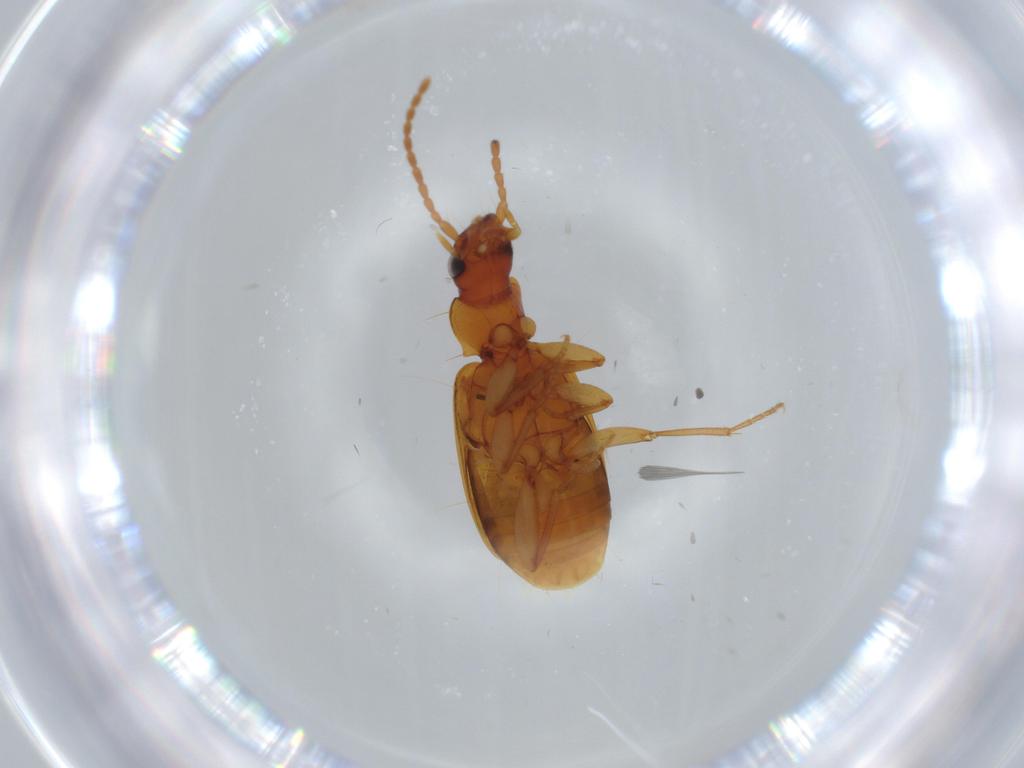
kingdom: Animalia
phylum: Arthropoda
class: Insecta
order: Coleoptera
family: Carabidae
